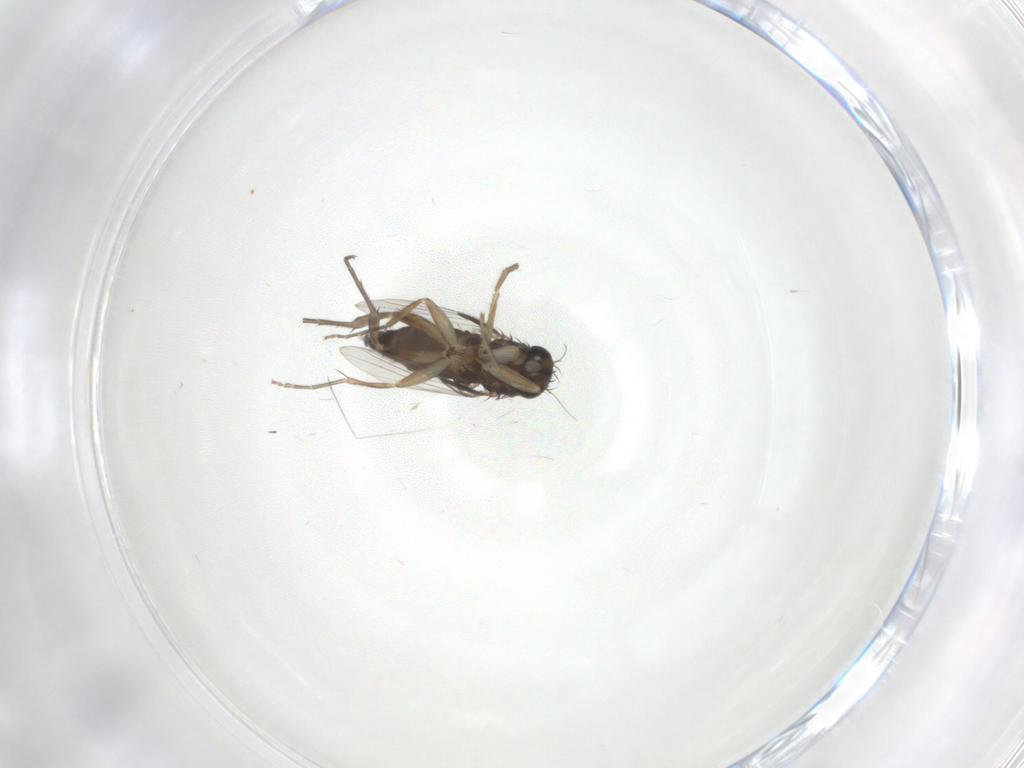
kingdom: Animalia
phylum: Arthropoda
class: Insecta
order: Diptera
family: Phoridae
